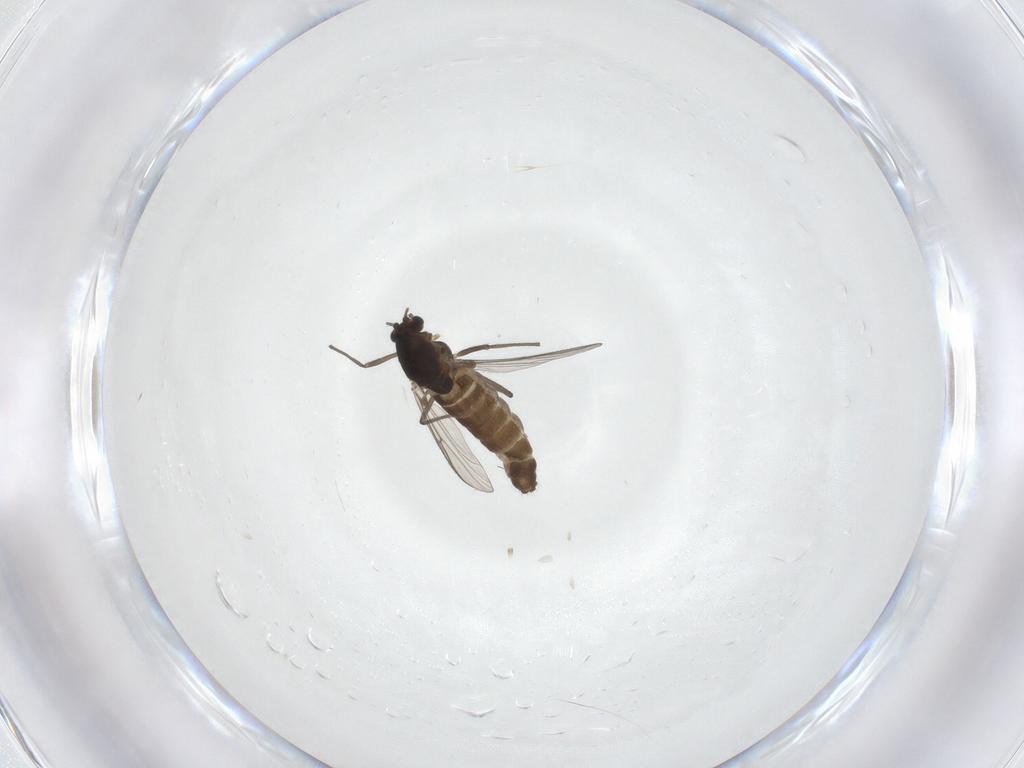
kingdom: Animalia
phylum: Arthropoda
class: Insecta
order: Diptera
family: Chironomidae
